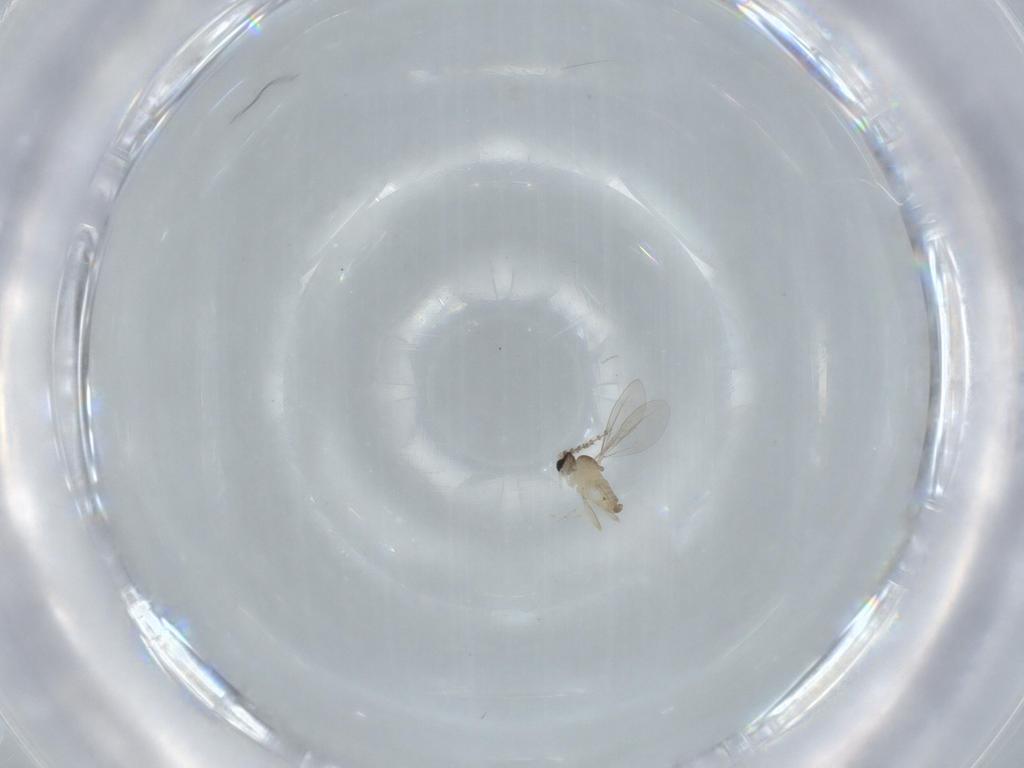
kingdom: Animalia
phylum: Arthropoda
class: Insecta
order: Diptera
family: Cecidomyiidae
